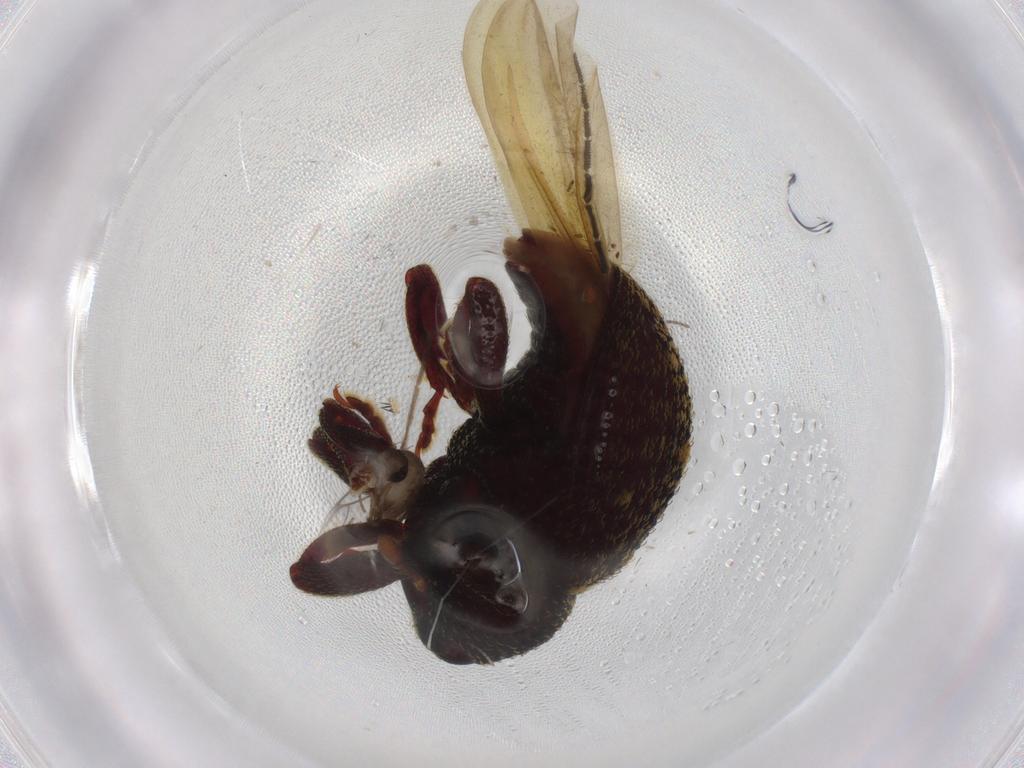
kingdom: Animalia
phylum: Arthropoda
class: Insecta
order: Coleoptera
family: Curculionidae
